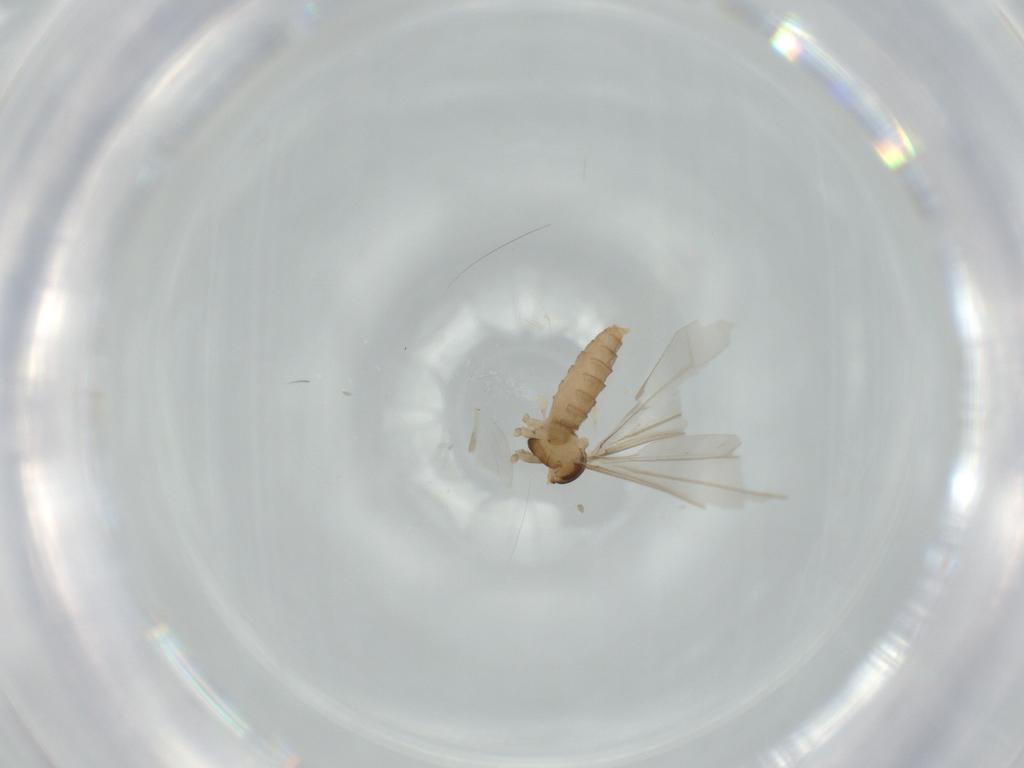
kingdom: Animalia
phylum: Arthropoda
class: Insecta
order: Diptera
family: Cecidomyiidae
